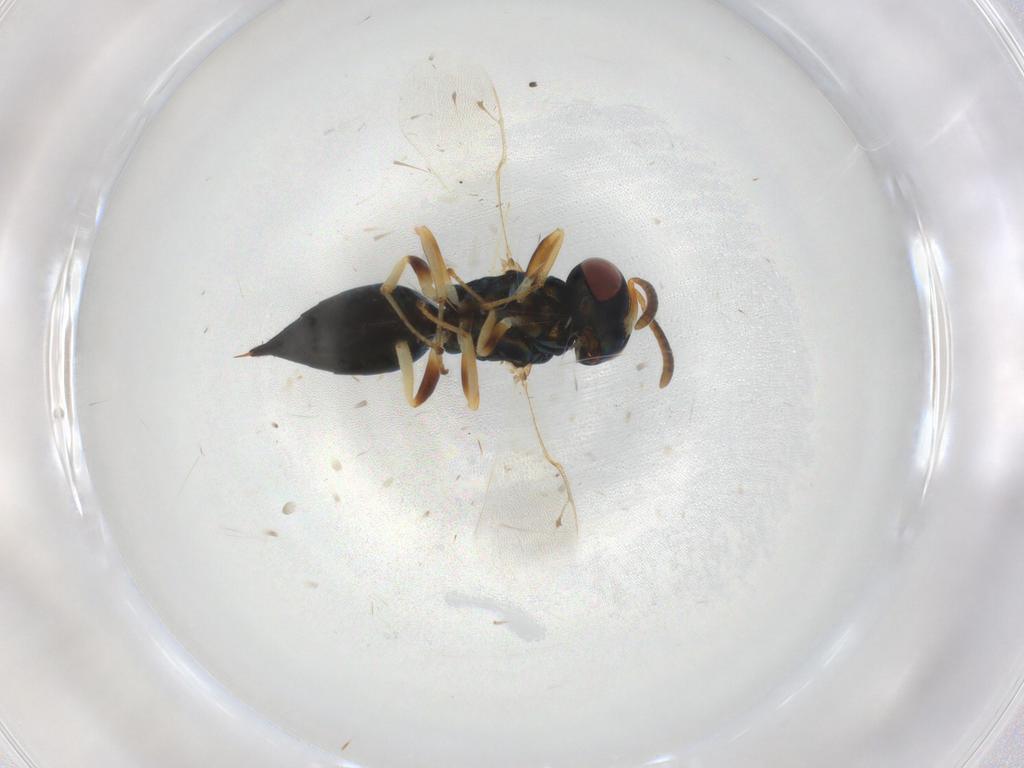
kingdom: Animalia
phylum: Arthropoda
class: Insecta
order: Hymenoptera
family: Pteromalidae
